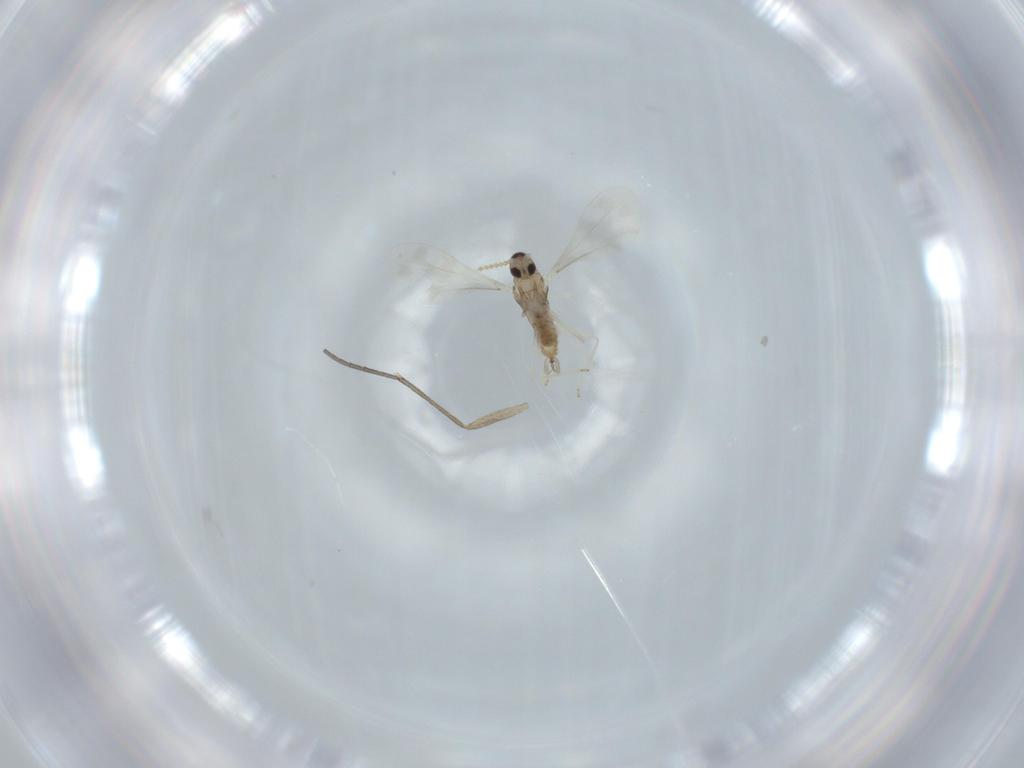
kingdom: Animalia
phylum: Arthropoda
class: Insecta
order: Diptera
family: Cecidomyiidae
